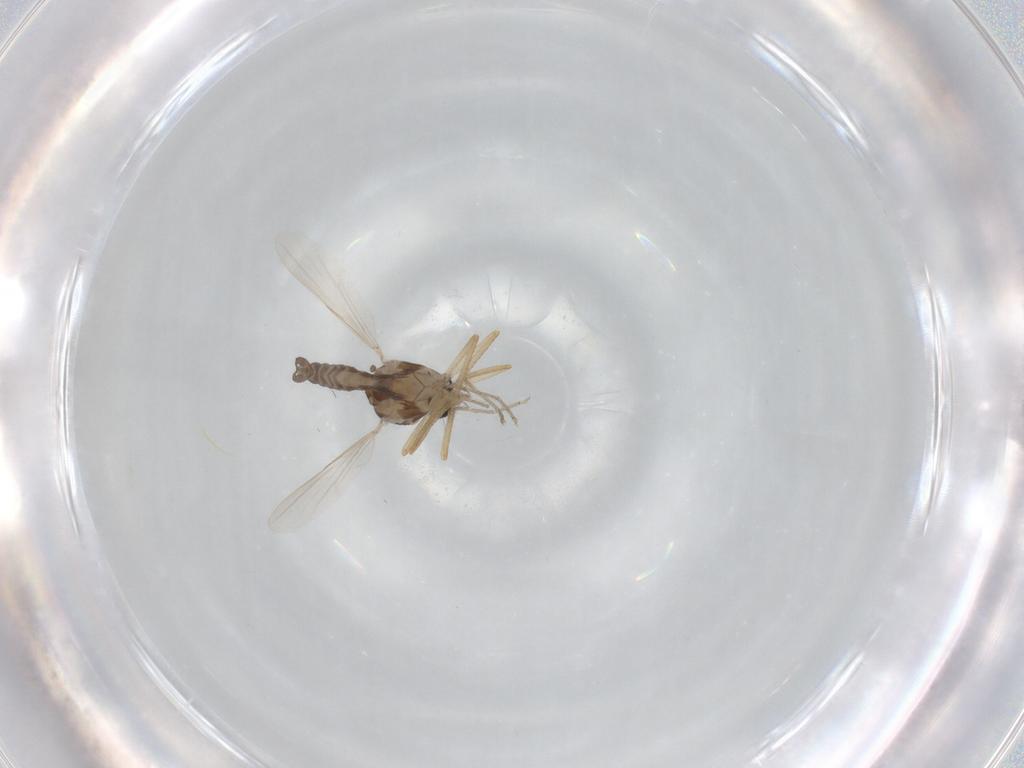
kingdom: Animalia
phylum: Arthropoda
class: Insecta
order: Diptera
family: Ceratopogonidae
